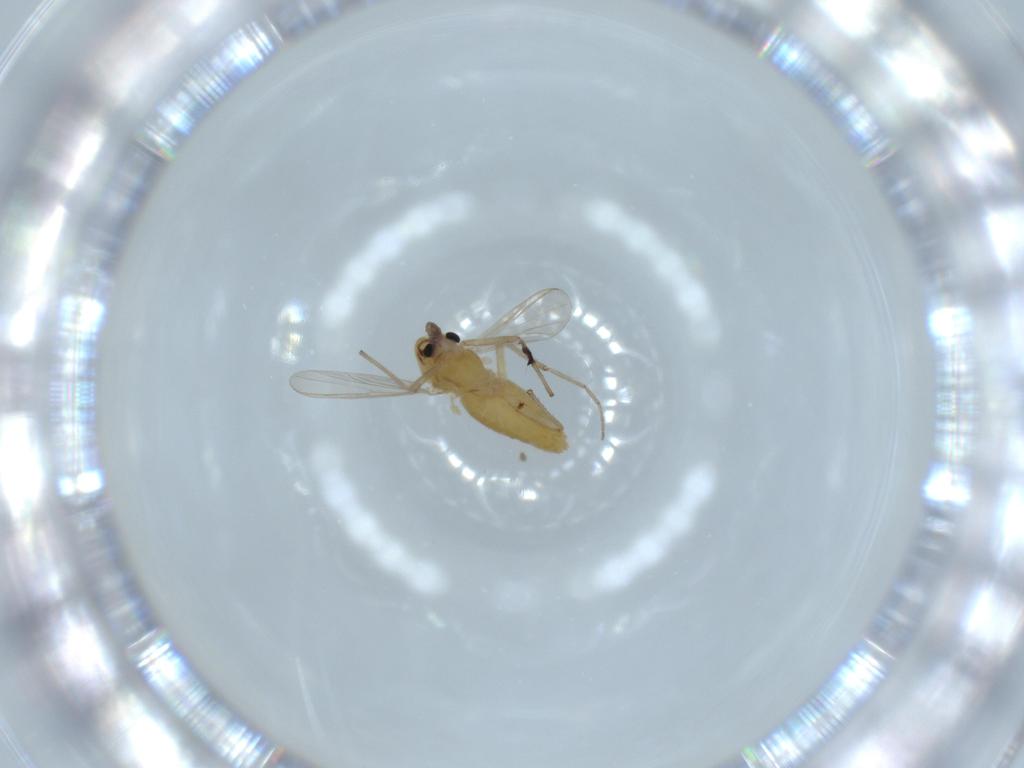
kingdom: Animalia
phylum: Arthropoda
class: Insecta
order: Diptera
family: Chironomidae
